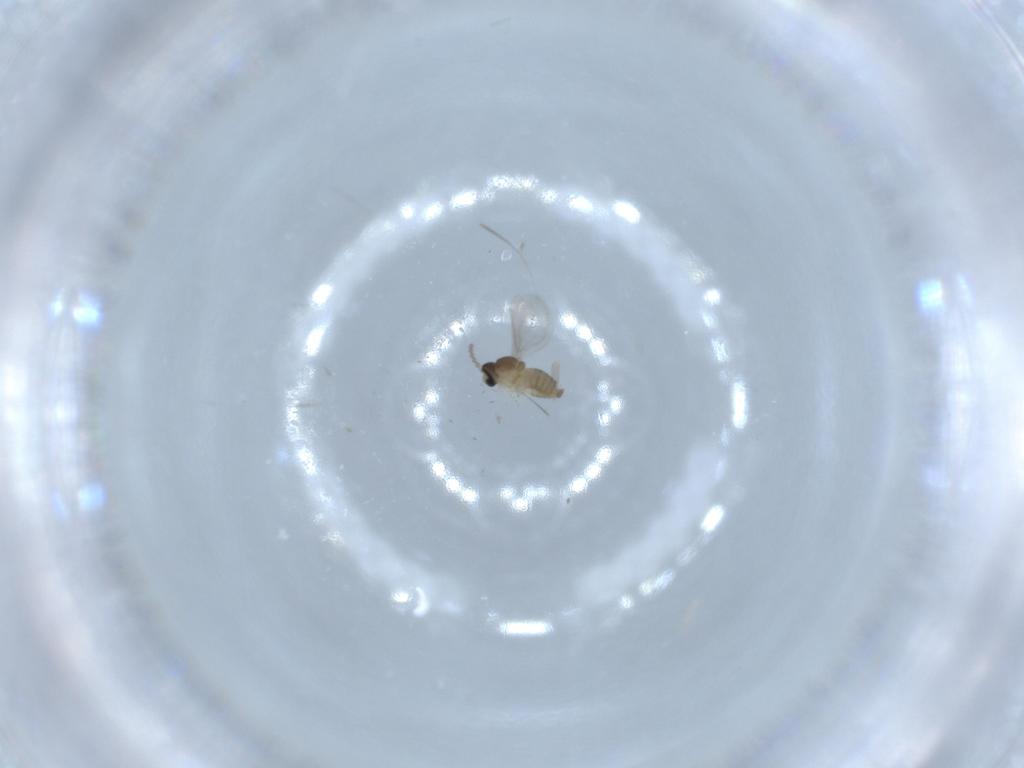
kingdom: Animalia
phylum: Arthropoda
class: Insecta
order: Diptera
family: Cecidomyiidae
